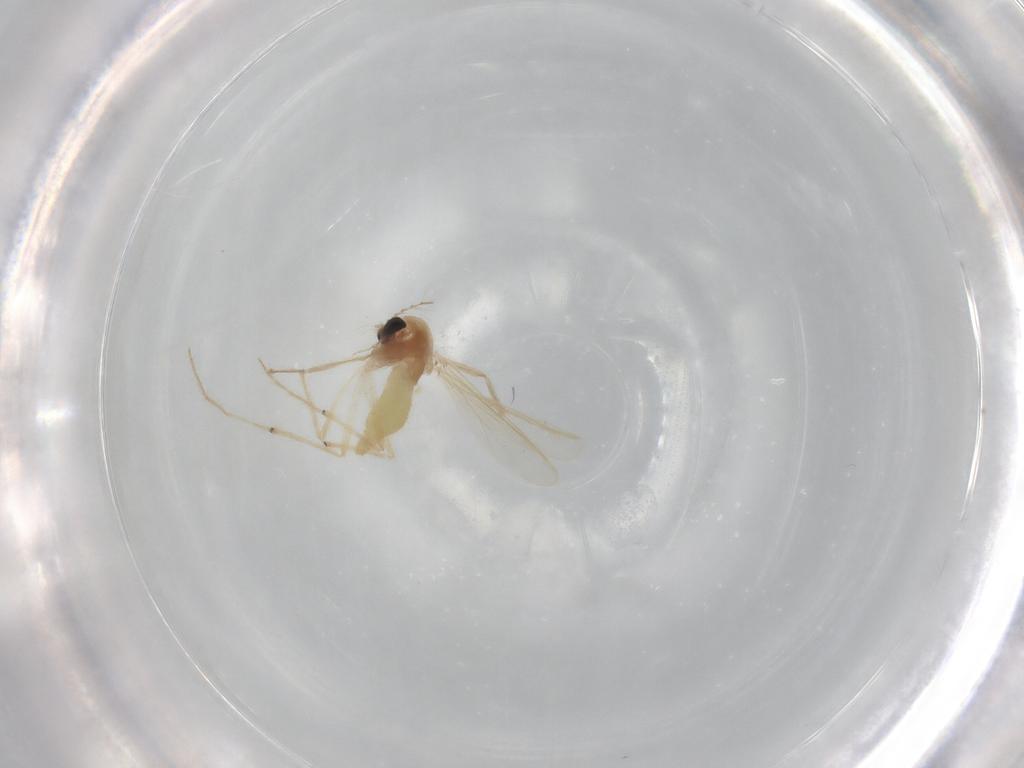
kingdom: Animalia
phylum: Arthropoda
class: Insecta
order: Diptera
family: Chironomidae
